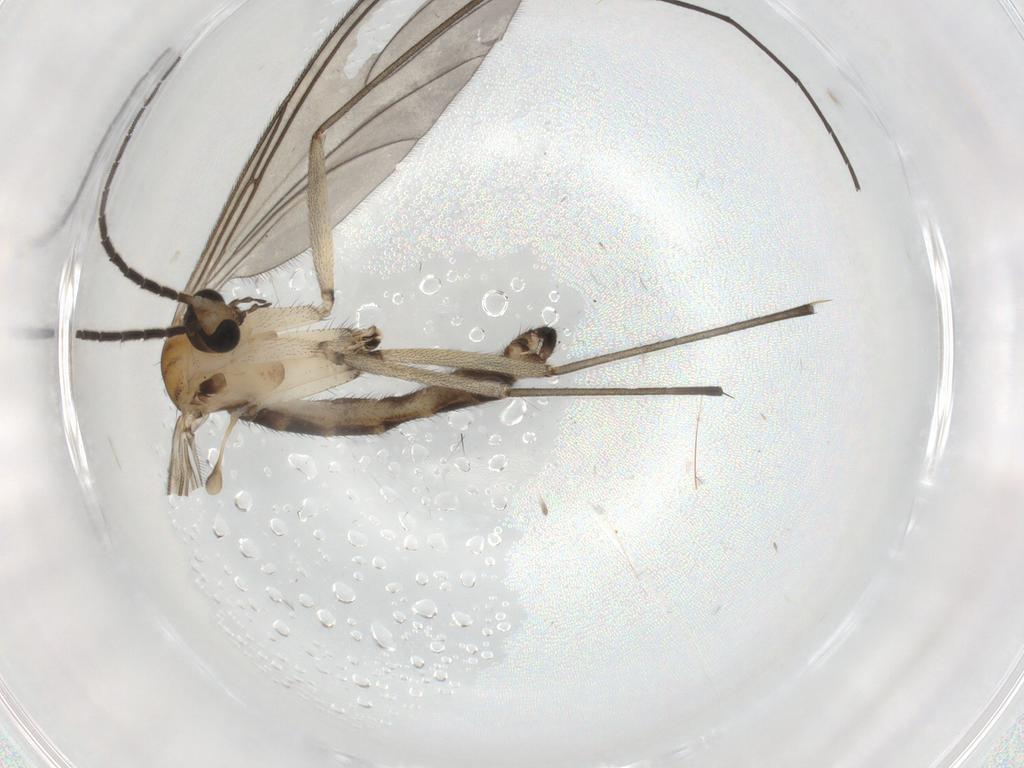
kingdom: Animalia
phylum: Arthropoda
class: Insecta
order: Diptera
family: Sciaridae
